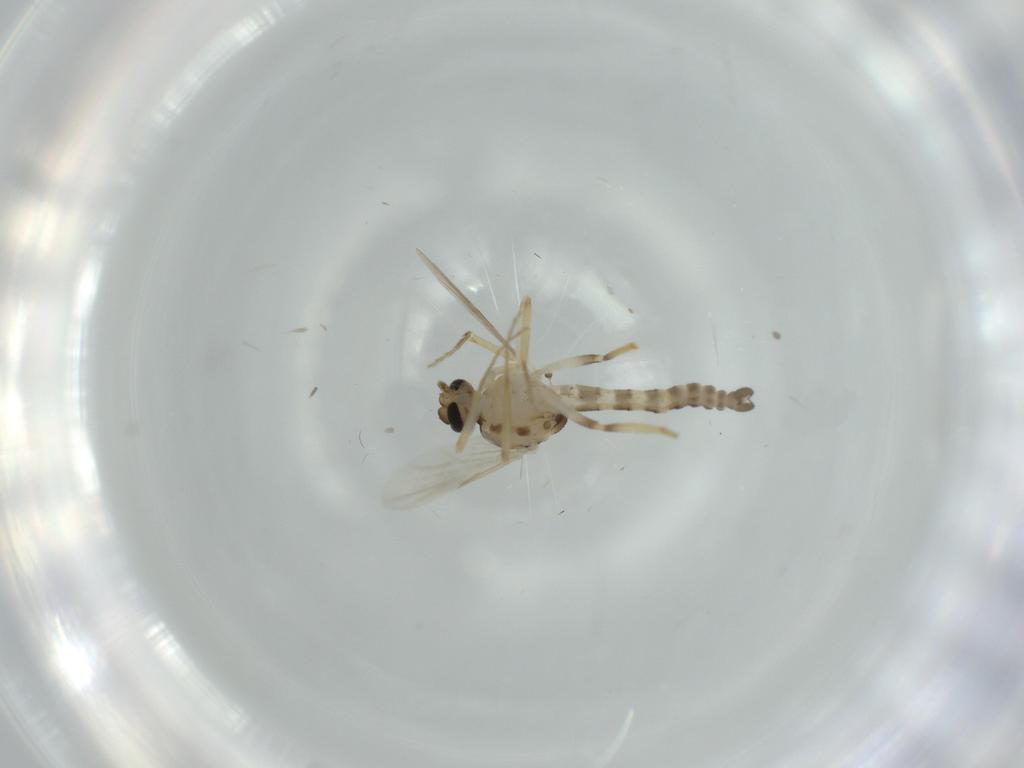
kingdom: Animalia
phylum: Arthropoda
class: Insecta
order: Diptera
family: Ceratopogonidae
